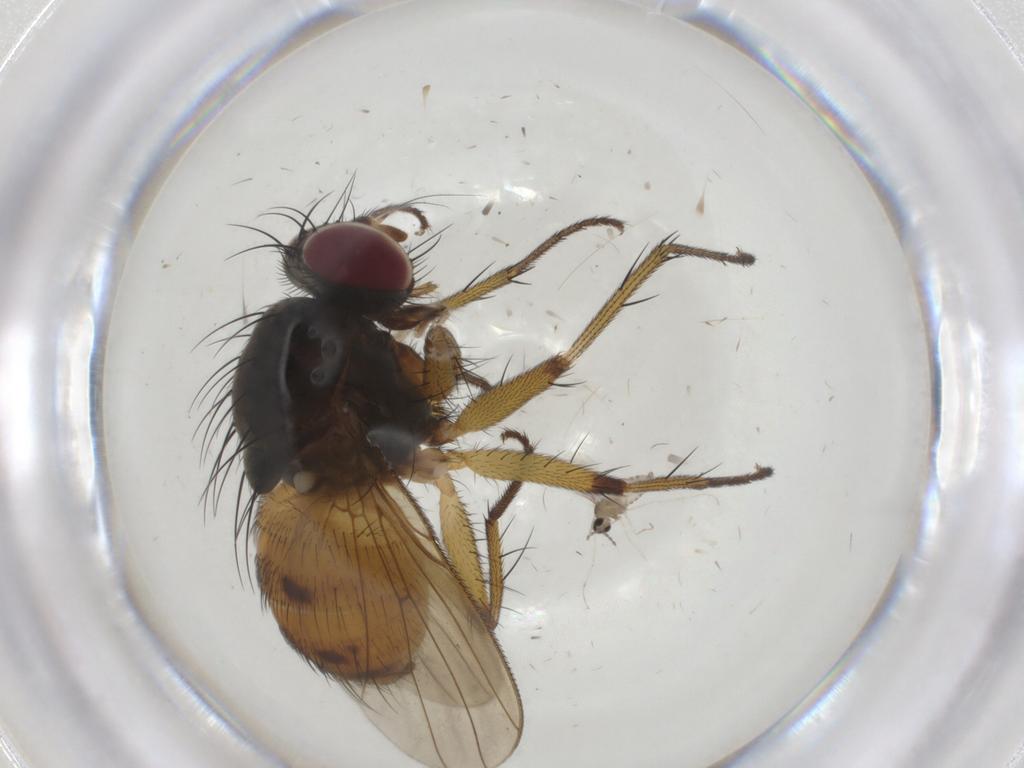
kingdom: Animalia
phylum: Arthropoda
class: Insecta
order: Diptera
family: Muscidae
